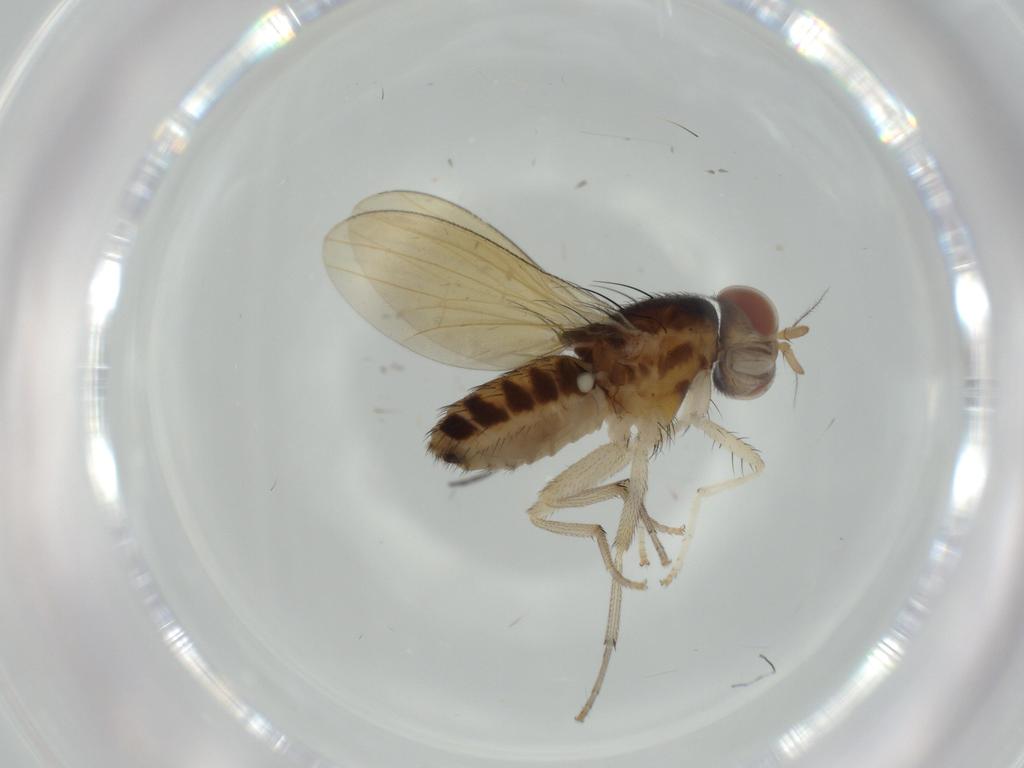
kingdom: Animalia
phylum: Arthropoda
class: Insecta
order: Diptera
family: Sciaridae
